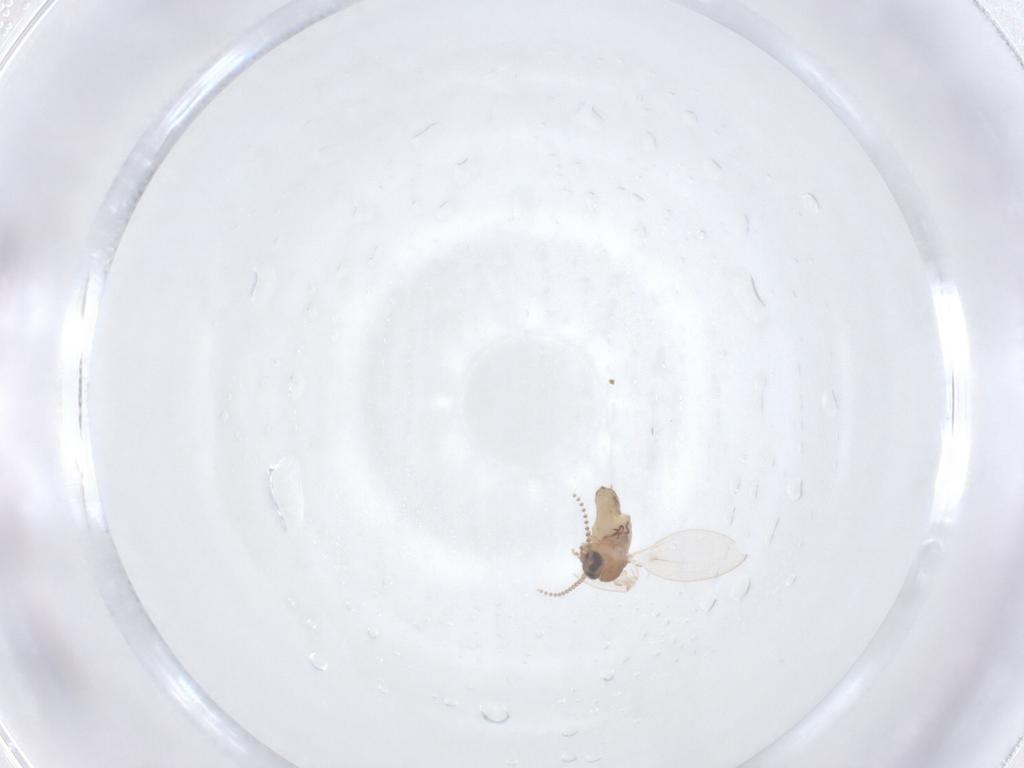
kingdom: Animalia
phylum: Arthropoda
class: Insecta
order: Diptera
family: Psychodidae
